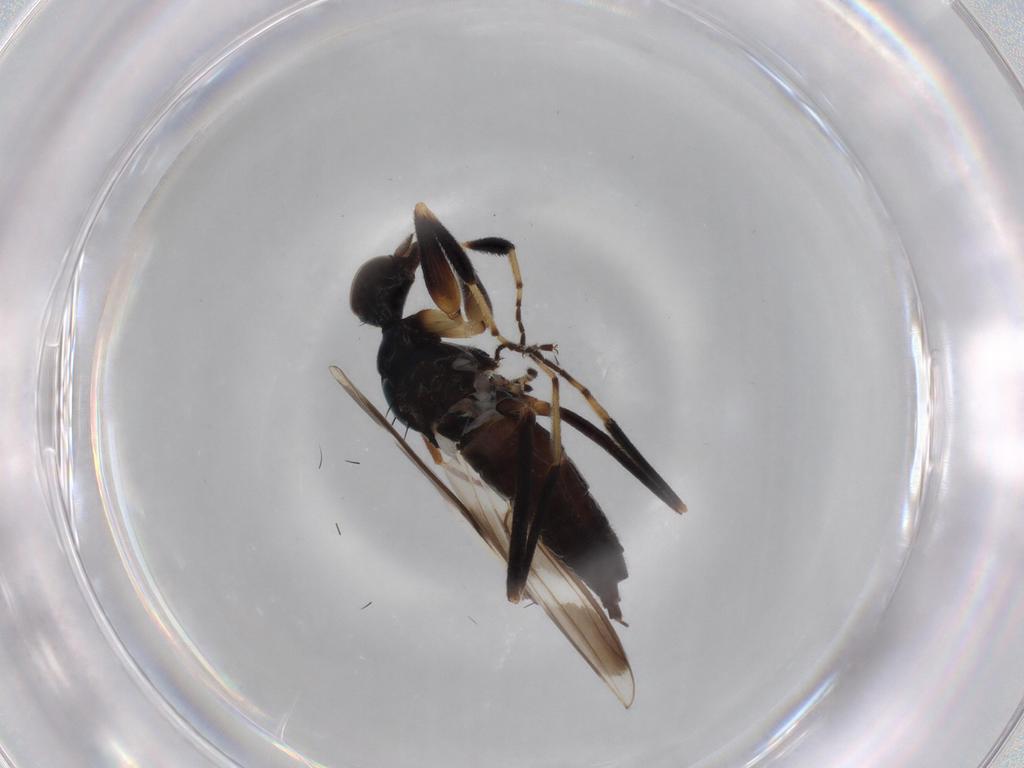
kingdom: Animalia
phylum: Arthropoda
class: Insecta
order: Diptera
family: Hybotidae
